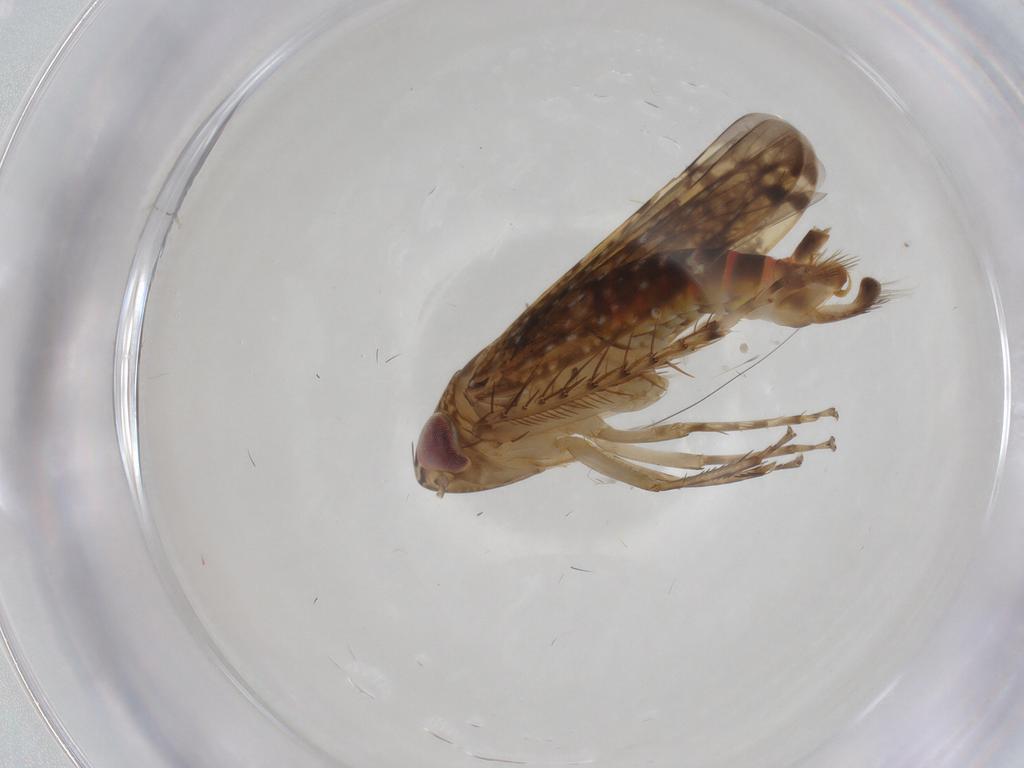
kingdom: Animalia
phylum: Arthropoda
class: Insecta
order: Hemiptera
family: Cicadellidae
